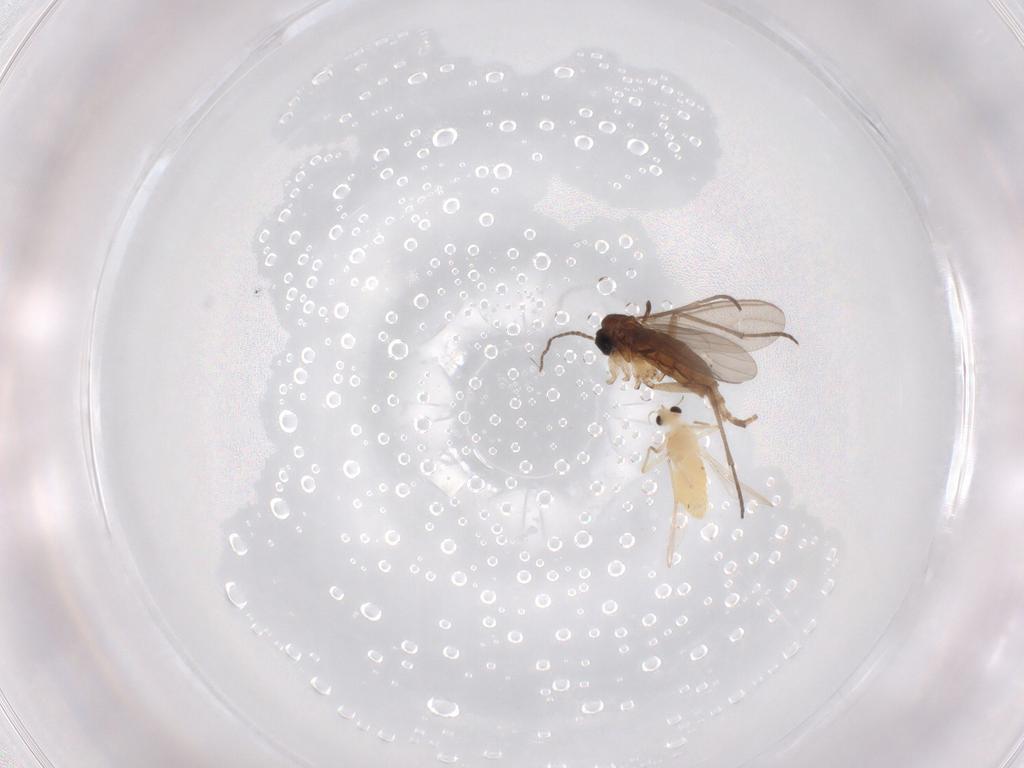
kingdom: Animalia
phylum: Arthropoda
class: Insecta
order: Diptera
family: Chironomidae
